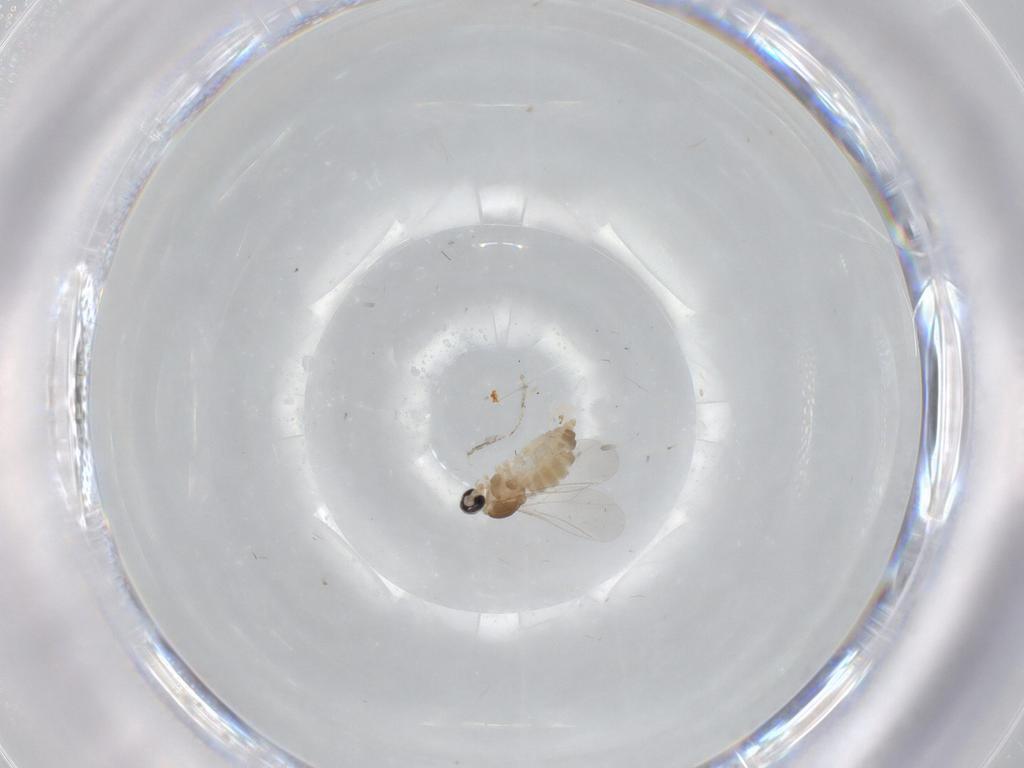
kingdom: Animalia
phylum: Arthropoda
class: Insecta
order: Diptera
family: Cecidomyiidae
